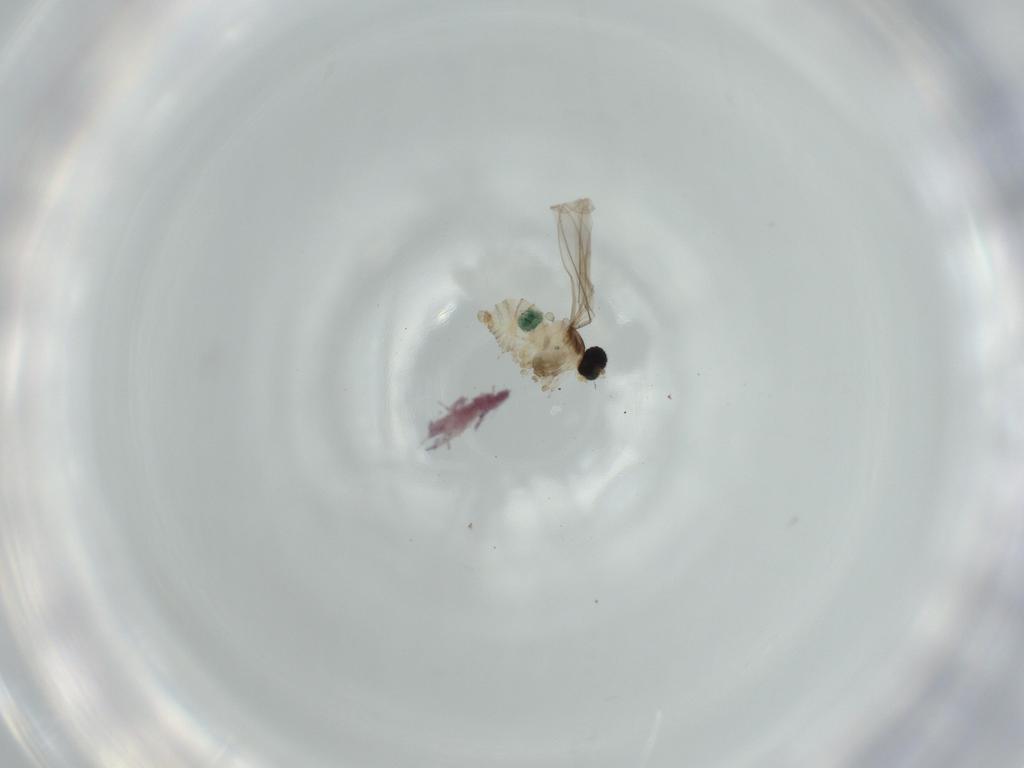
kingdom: Animalia
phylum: Arthropoda
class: Insecta
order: Diptera
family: Cecidomyiidae
